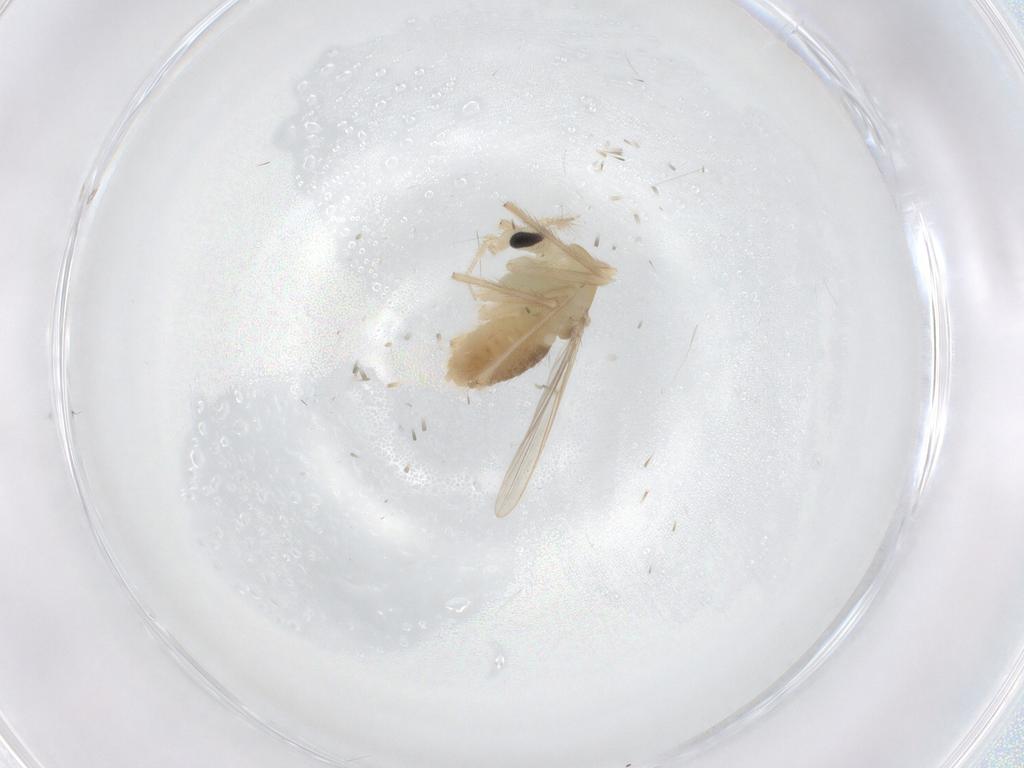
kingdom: Animalia
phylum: Arthropoda
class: Insecta
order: Diptera
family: Chironomidae
